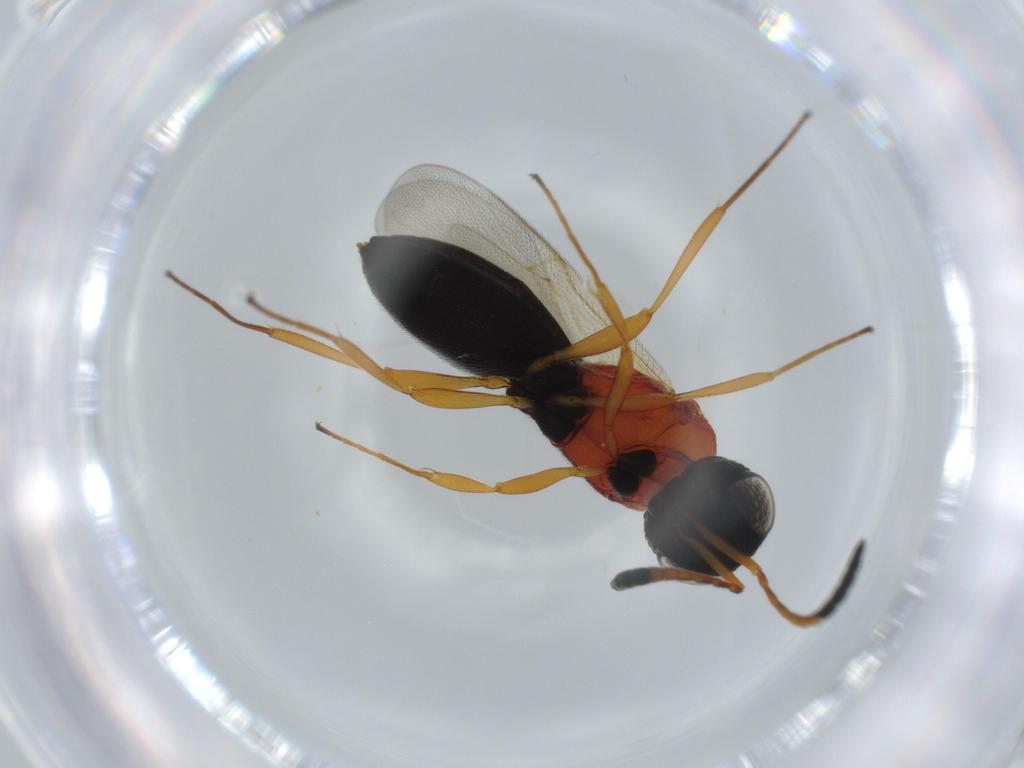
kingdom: Animalia
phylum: Arthropoda
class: Insecta
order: Hymenoptera
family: Scelionidae
